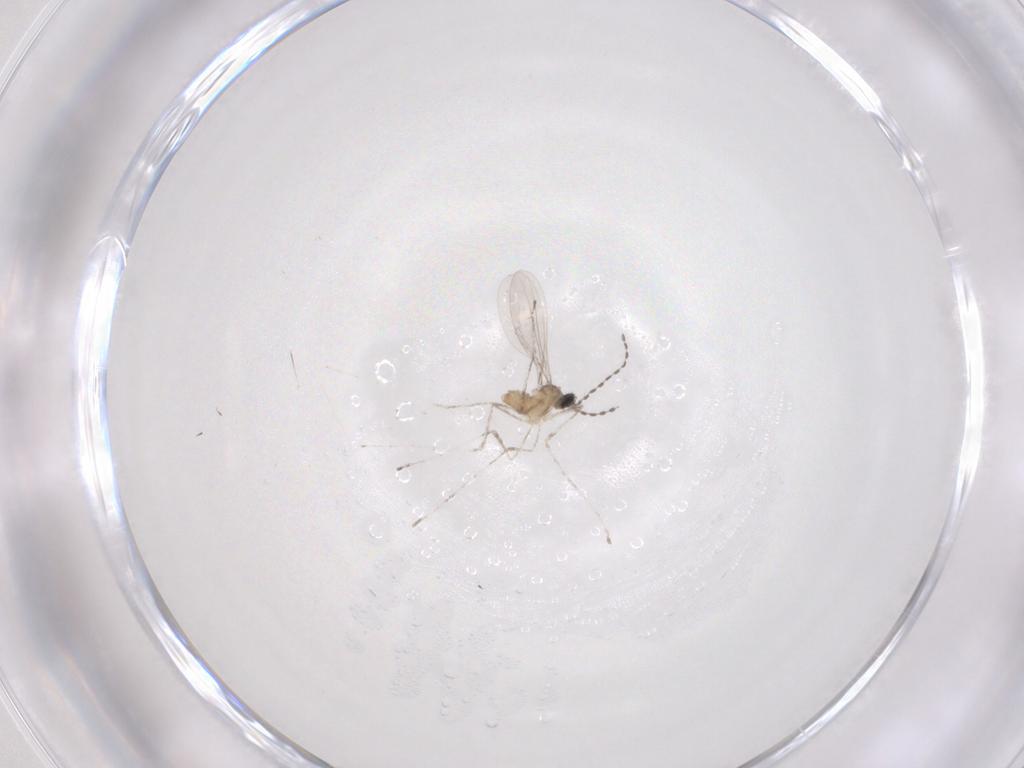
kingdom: Animalia
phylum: Arthropoda
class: Insecta
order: Diptera
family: Cecidomyiidae
